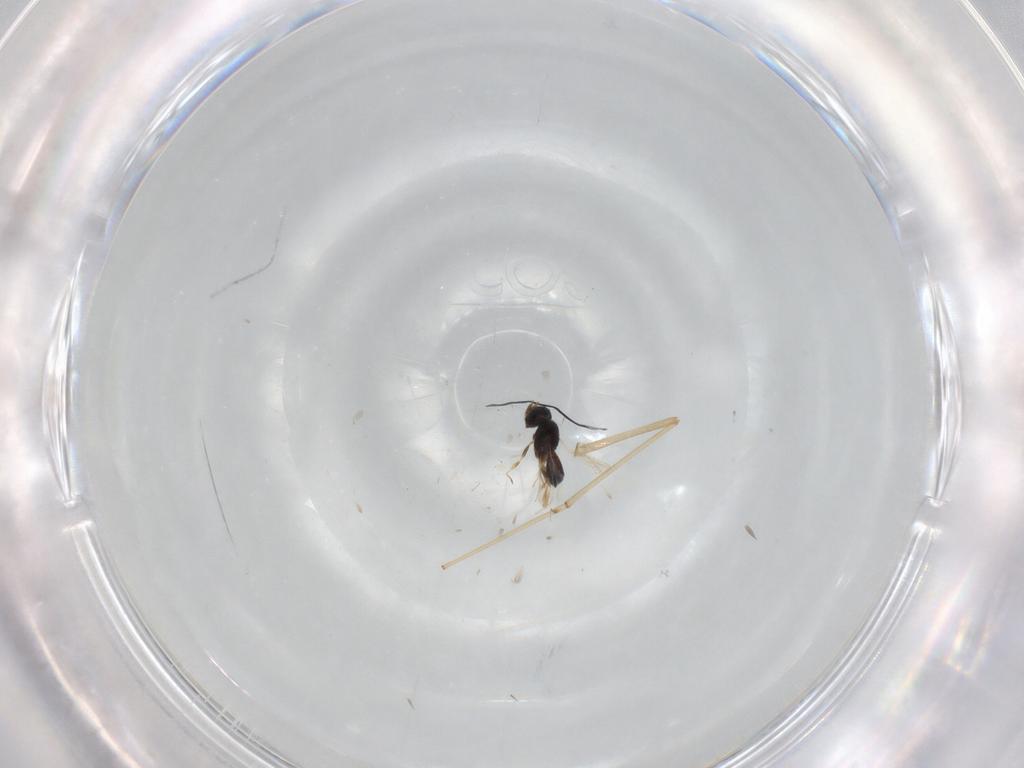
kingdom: Animalia
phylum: Arthropoda
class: Insecta
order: Hymenoptera
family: Scelionidae
